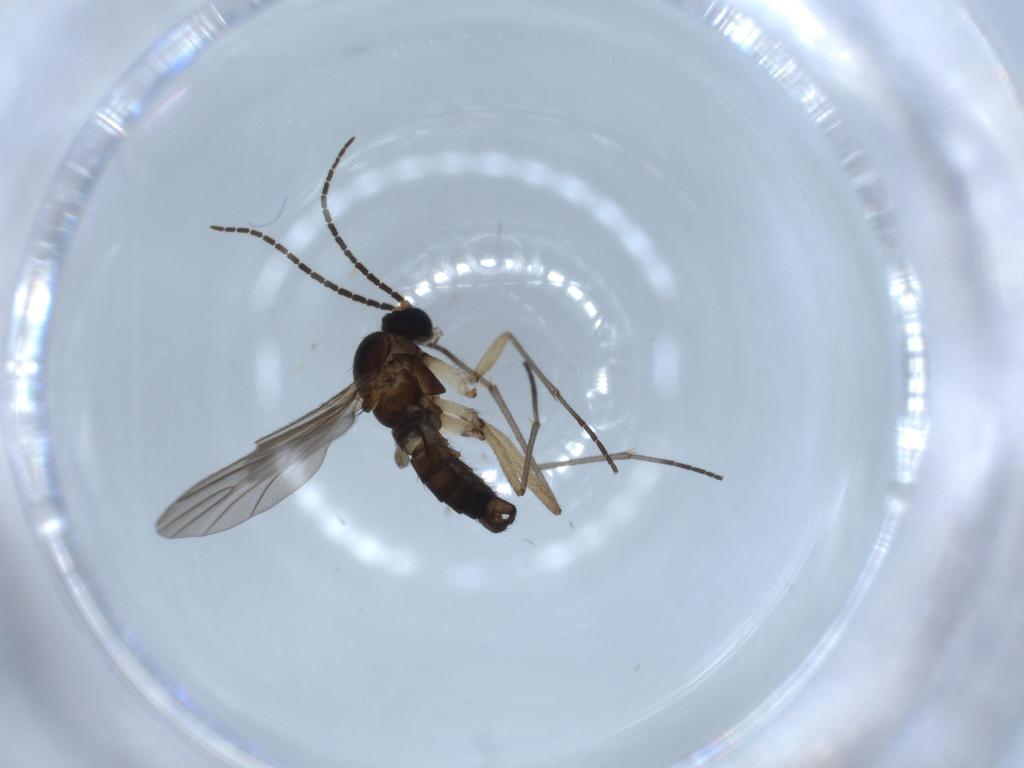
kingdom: Animalia
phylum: Arthropoda
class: Insecta
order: Diptera
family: Sciaridae
